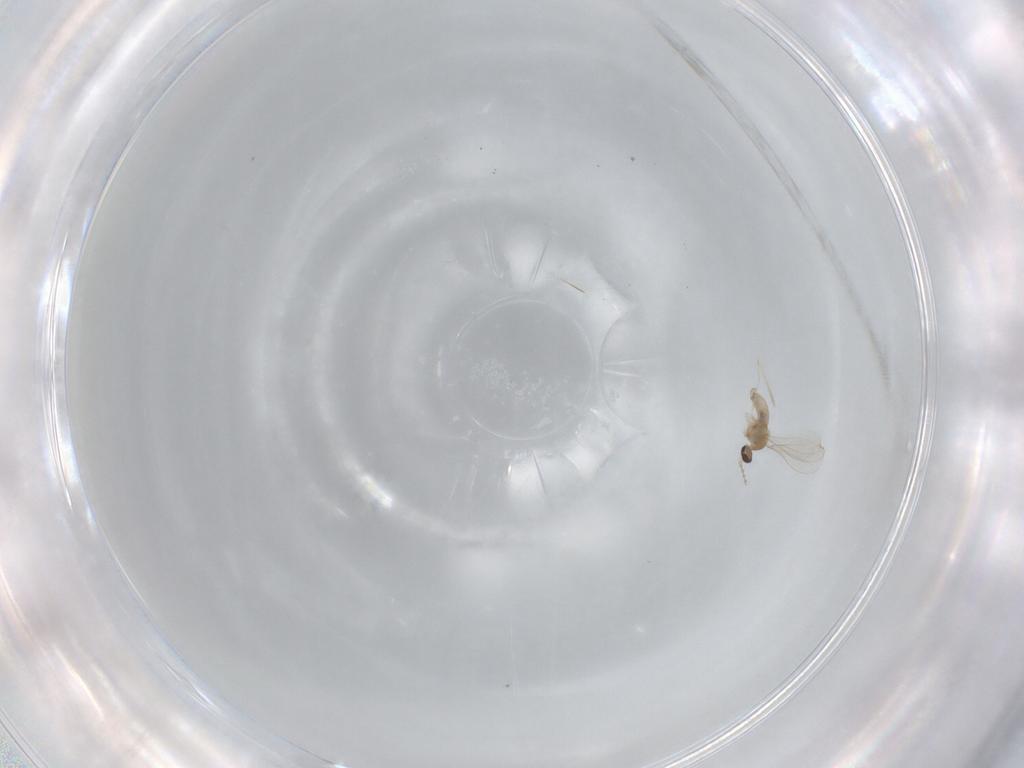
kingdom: Animalia
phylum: Arthropoda
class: Insecta
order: Diptera
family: Cecidomyiidae
